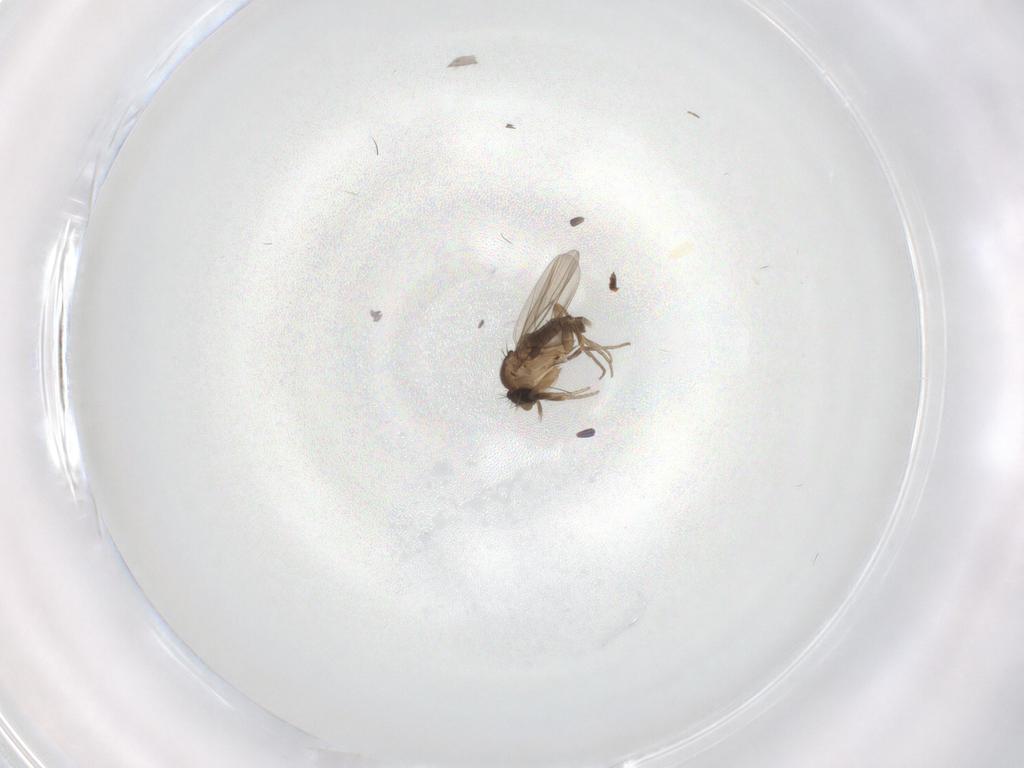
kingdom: Animalia
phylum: Arthropoda
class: Insecta
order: Diptera
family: Phoridae
